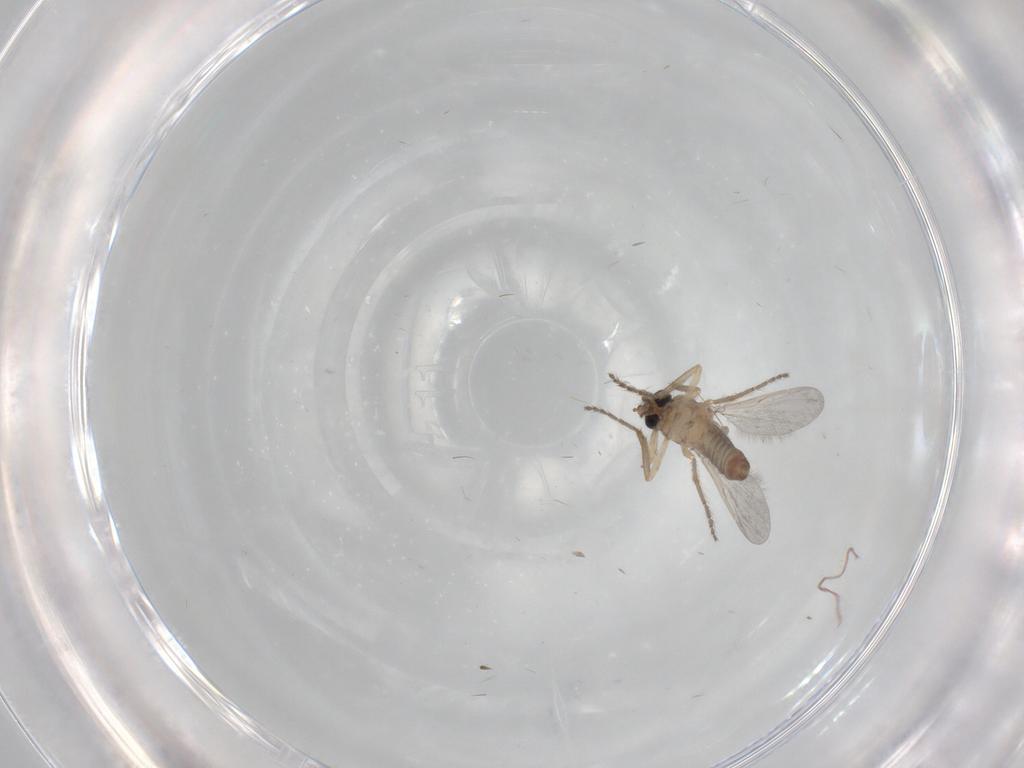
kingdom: Animalia
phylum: Arthropoda
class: Insecta
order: Diptera
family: Ceratopogonidae
